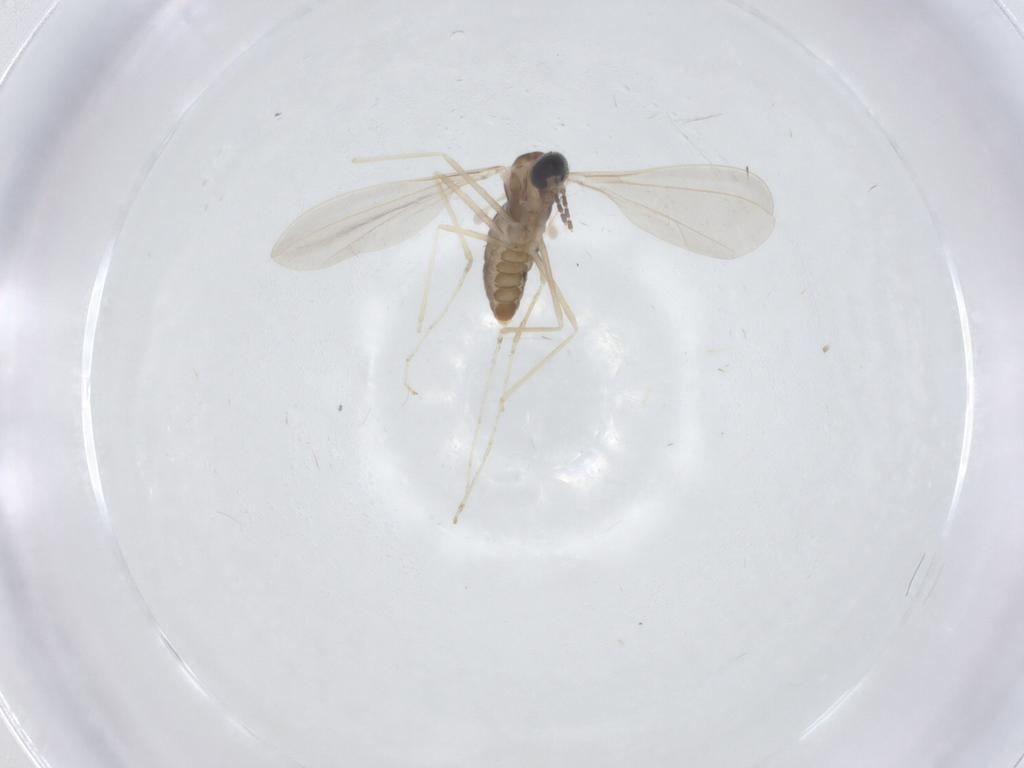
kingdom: Animalia
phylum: Arthropoda
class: Insecta
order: Diptera
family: Cecidomyiidae
